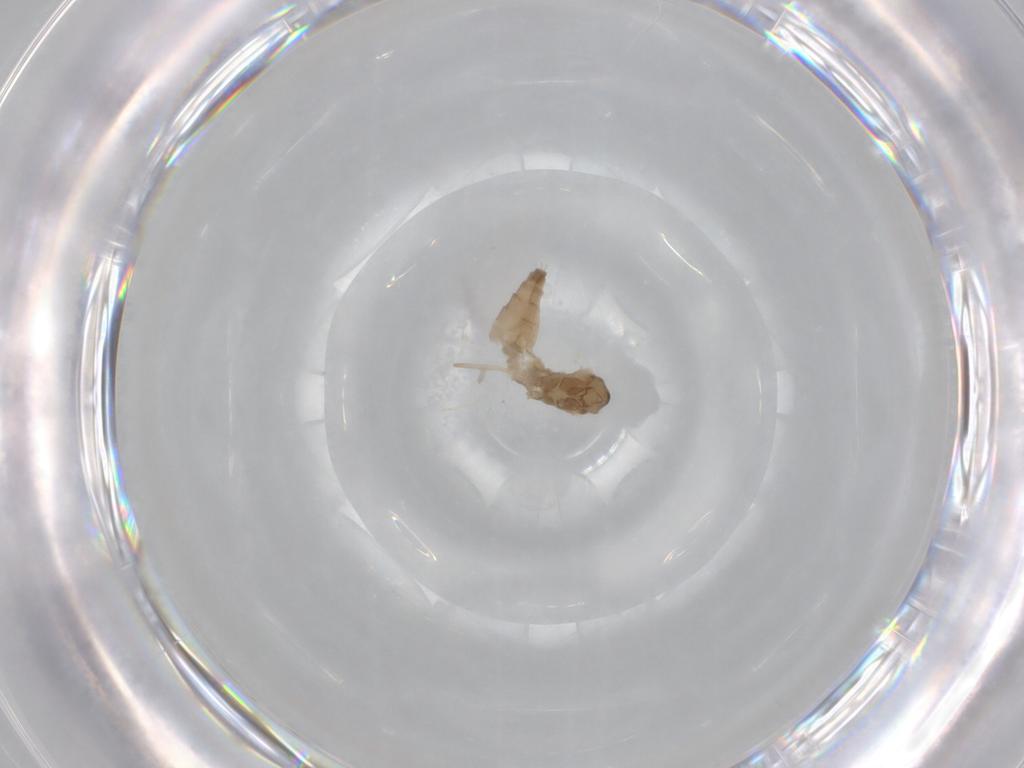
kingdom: Animalia
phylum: Arthropoda
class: Insecta
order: Diptera
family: Cecidomyiidae
